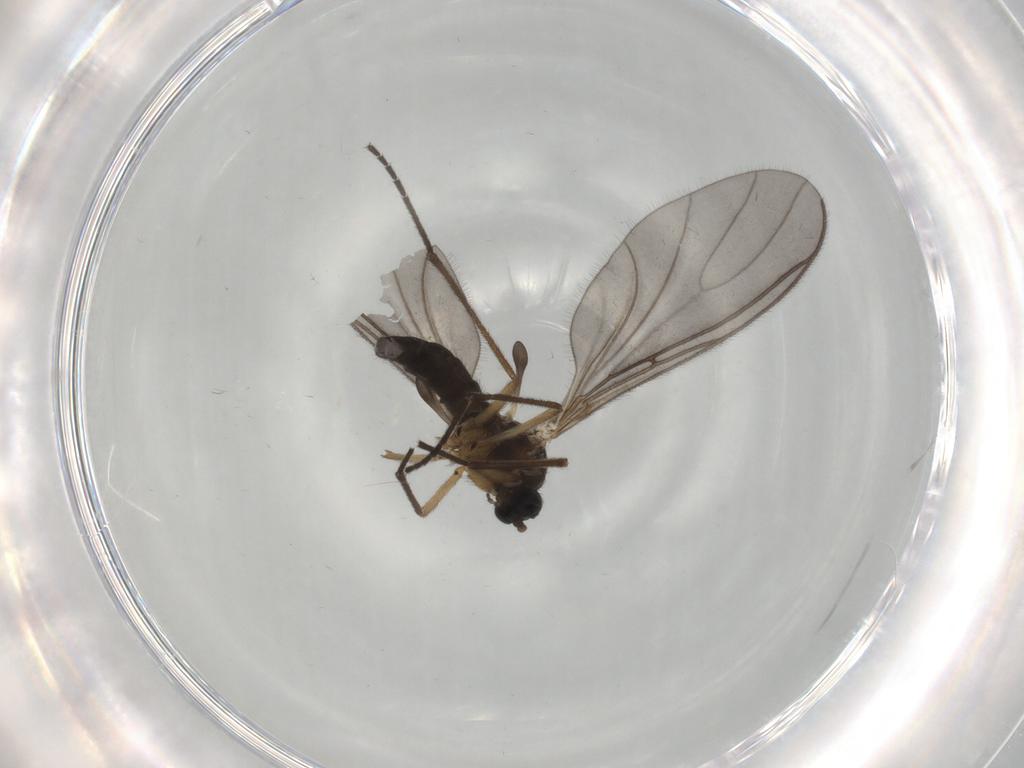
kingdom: Animalia
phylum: Arthropoda
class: Insecta
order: Diptera
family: Sciaridae
